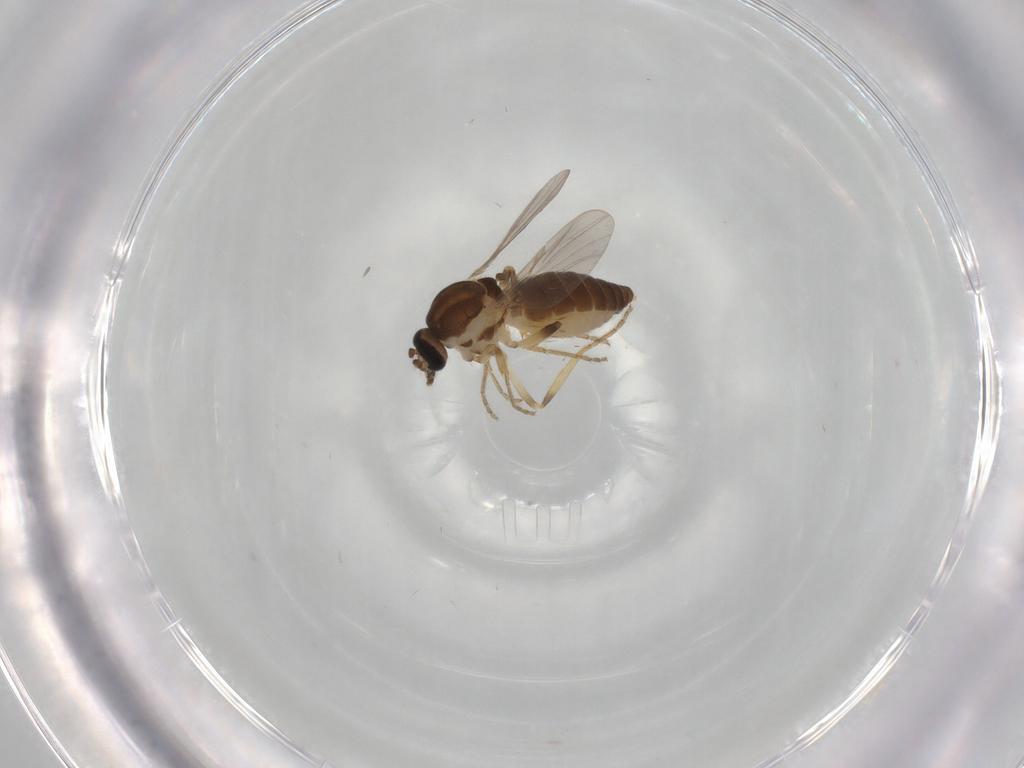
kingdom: Animalia
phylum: Arthropoda
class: Insecta
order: Diptera
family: Ceratopogonidae
